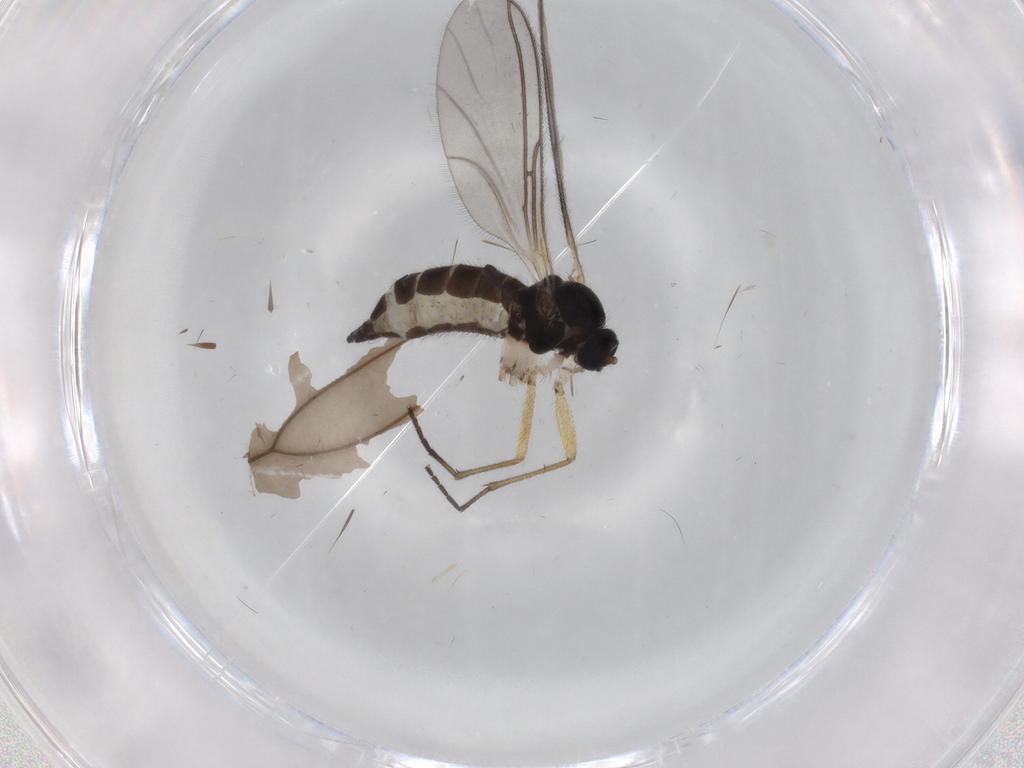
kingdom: Animalia
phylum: Arthropoda
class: Insecta
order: Diptera
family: Sciaridae
